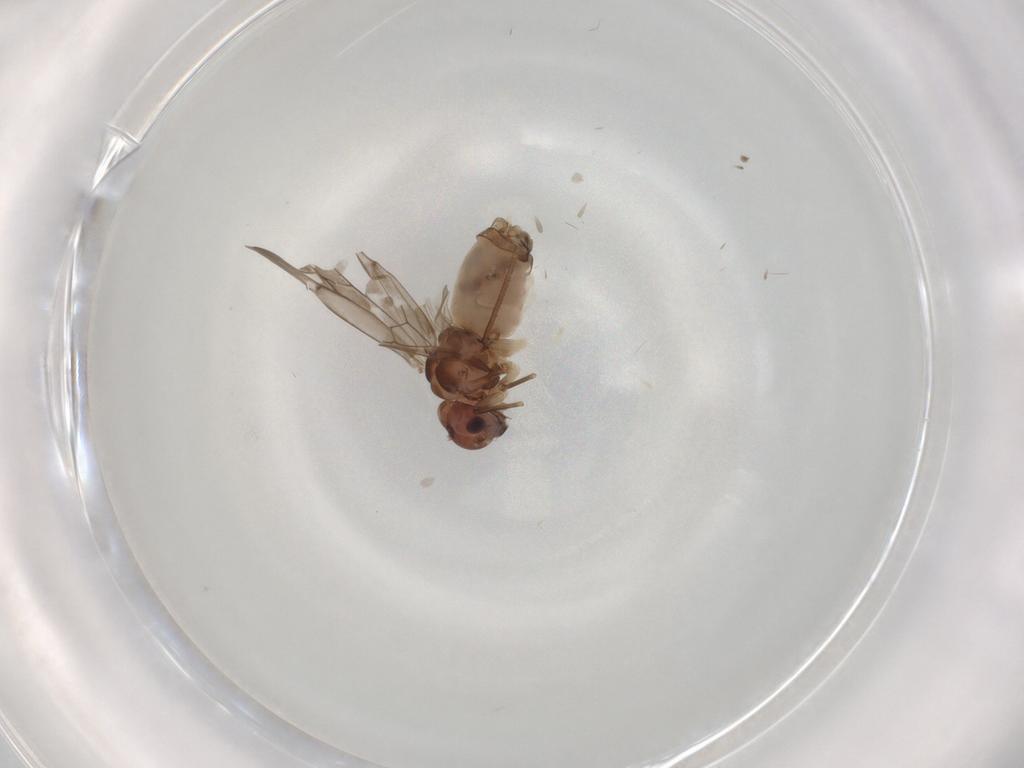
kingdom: Animalia
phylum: Arthropoda
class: Insecta
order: Psocodea
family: Peripsocidae
